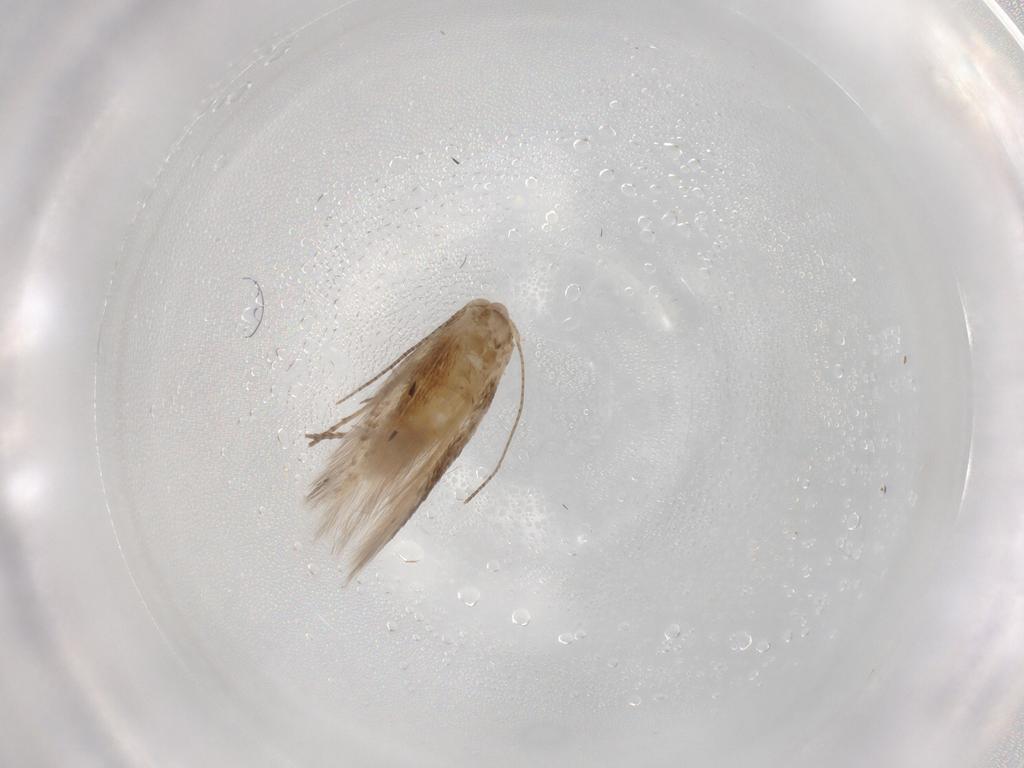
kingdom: Animalia
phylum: Arthropoda
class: Insecta
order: Lepidoptera
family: Bucculatricidae
